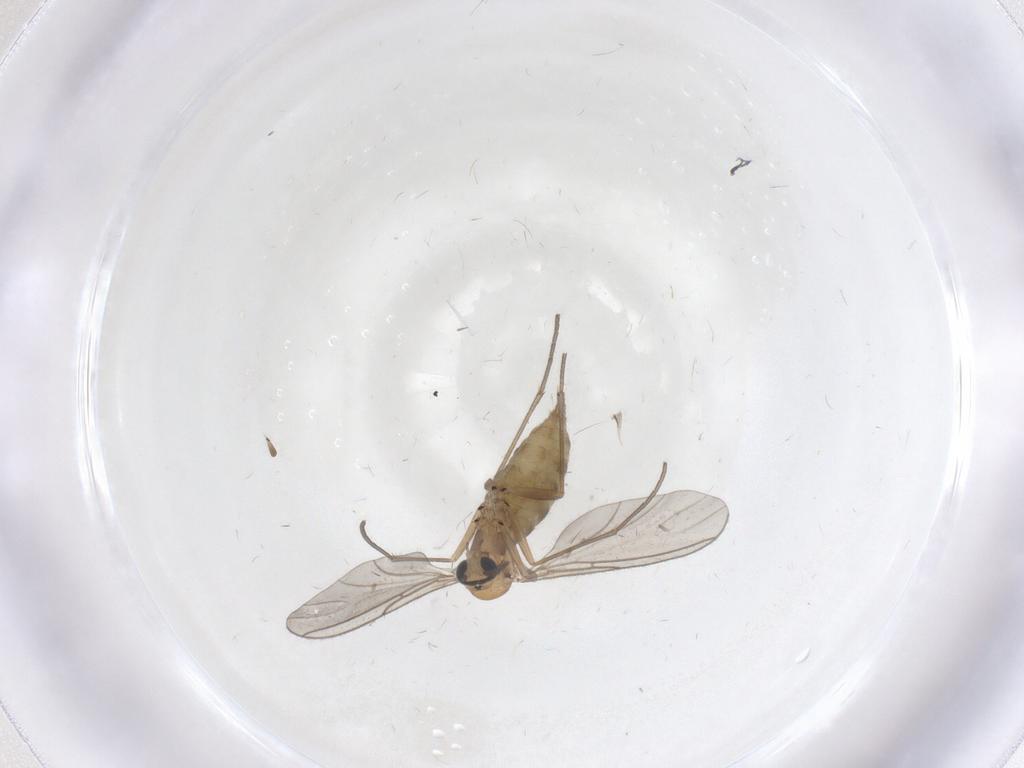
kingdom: Animalia
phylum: Arthropoda
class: Insecta
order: Diptera
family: Sciaridae
